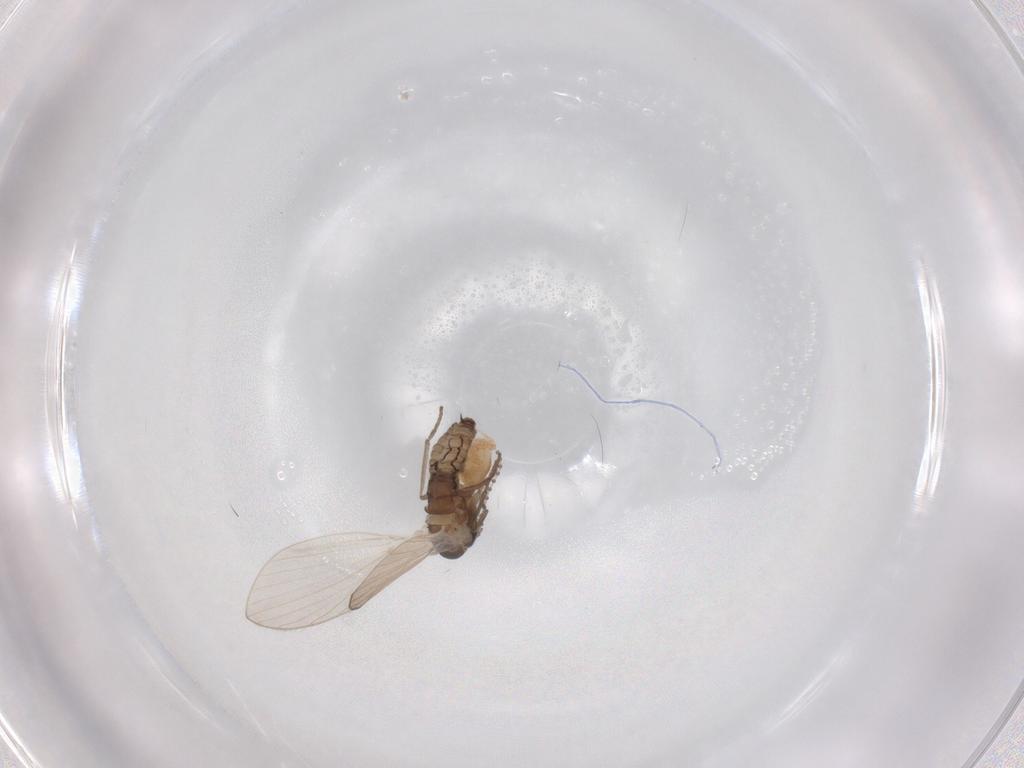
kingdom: Animalia
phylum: Arthropoda
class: Insecta
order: Diptera
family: Psychodidae
